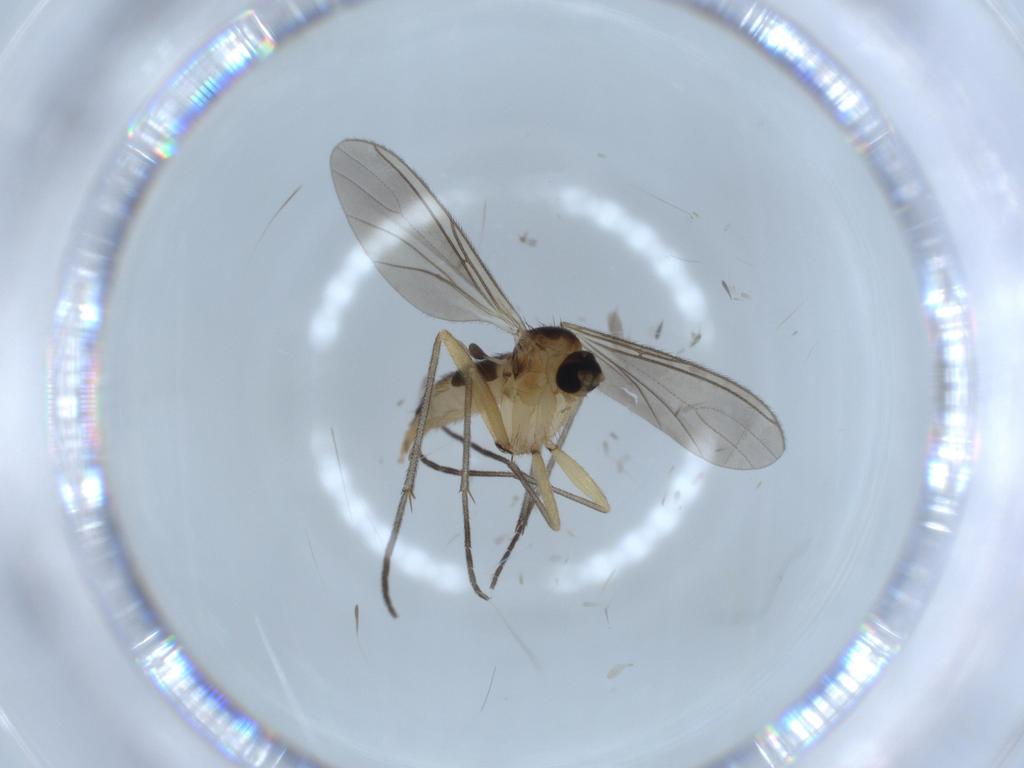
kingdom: Animalia
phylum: Arthropoda
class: Insecta
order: Diptera
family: Sciaridae
